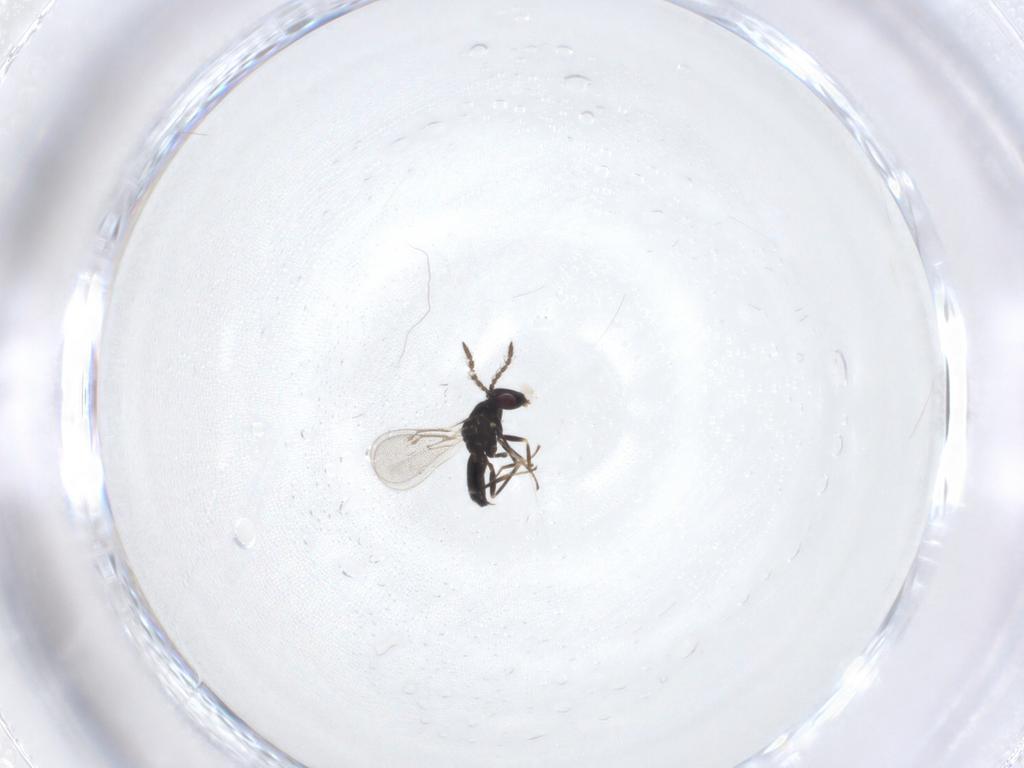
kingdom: Animalia
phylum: Arthropoda
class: Insecta
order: Hymenoptera
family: Eulophidae
